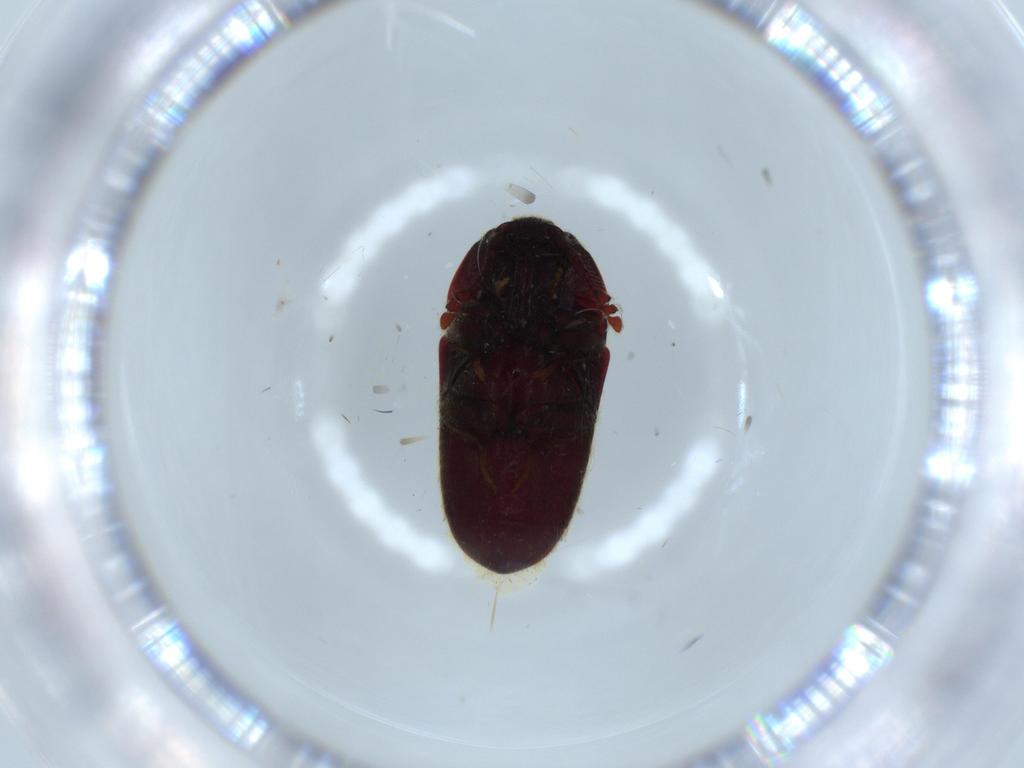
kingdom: Animalia
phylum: Arthropoda
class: Insecta
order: Coleoptera
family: Throscidae
